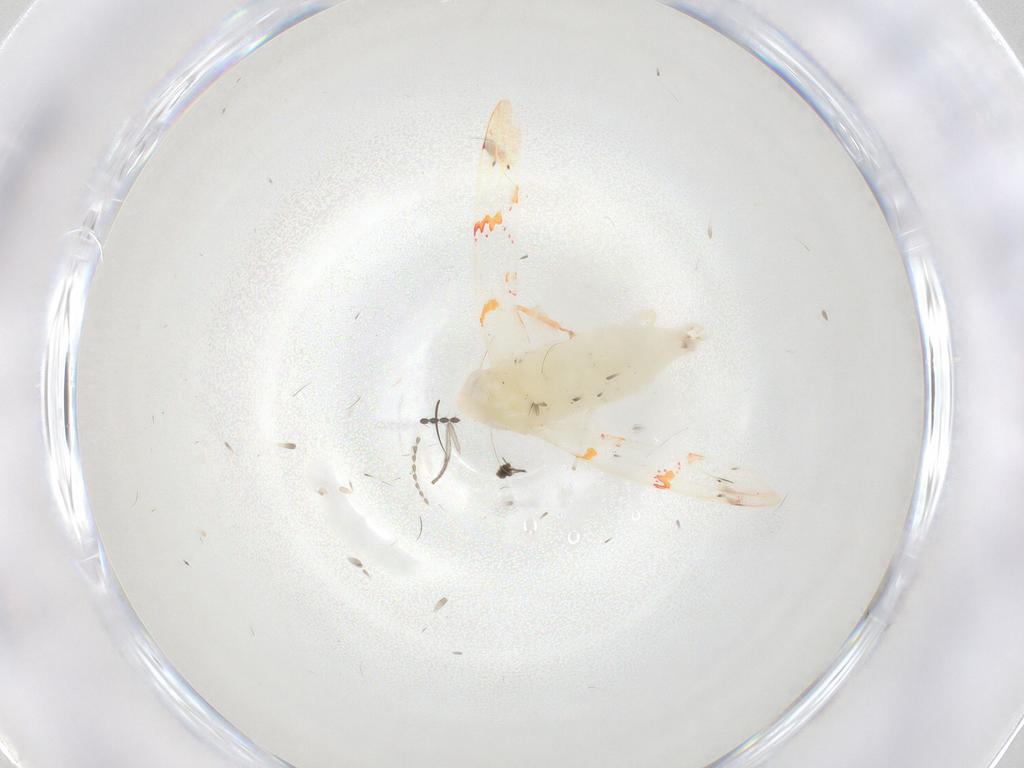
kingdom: Animalia
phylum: Arthropoda
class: Insecta
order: Hemiptera
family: Cicadellidae
